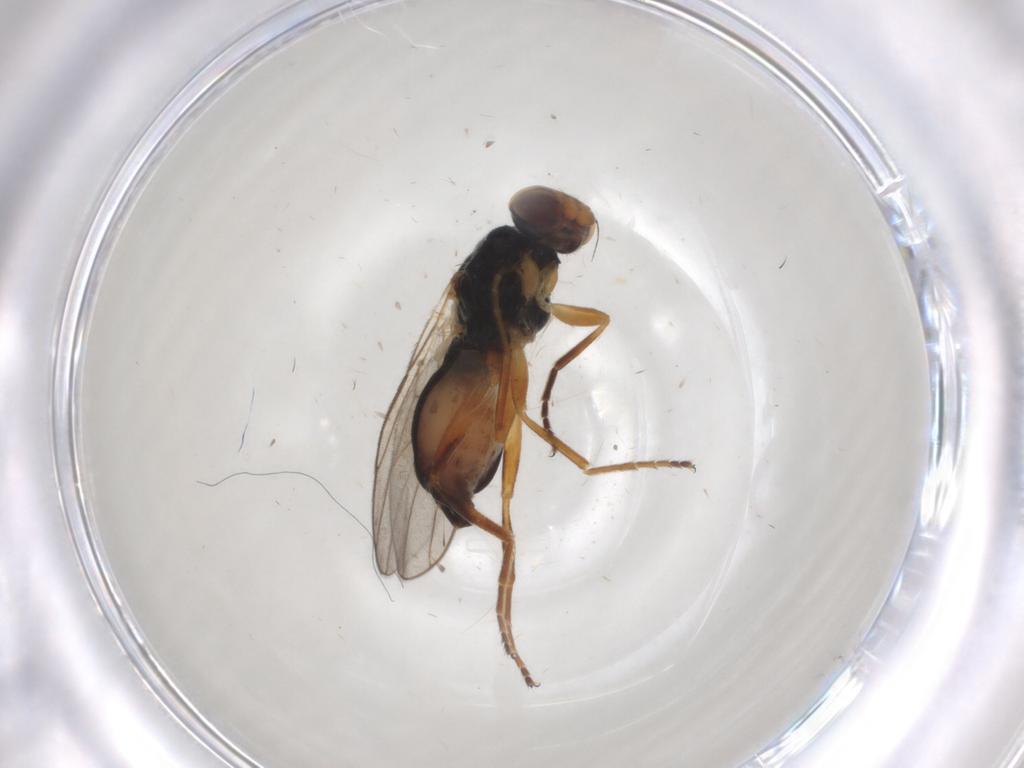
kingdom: Animalia
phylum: Arthropoda
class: Insecta
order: Diptera
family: Chloropidae
